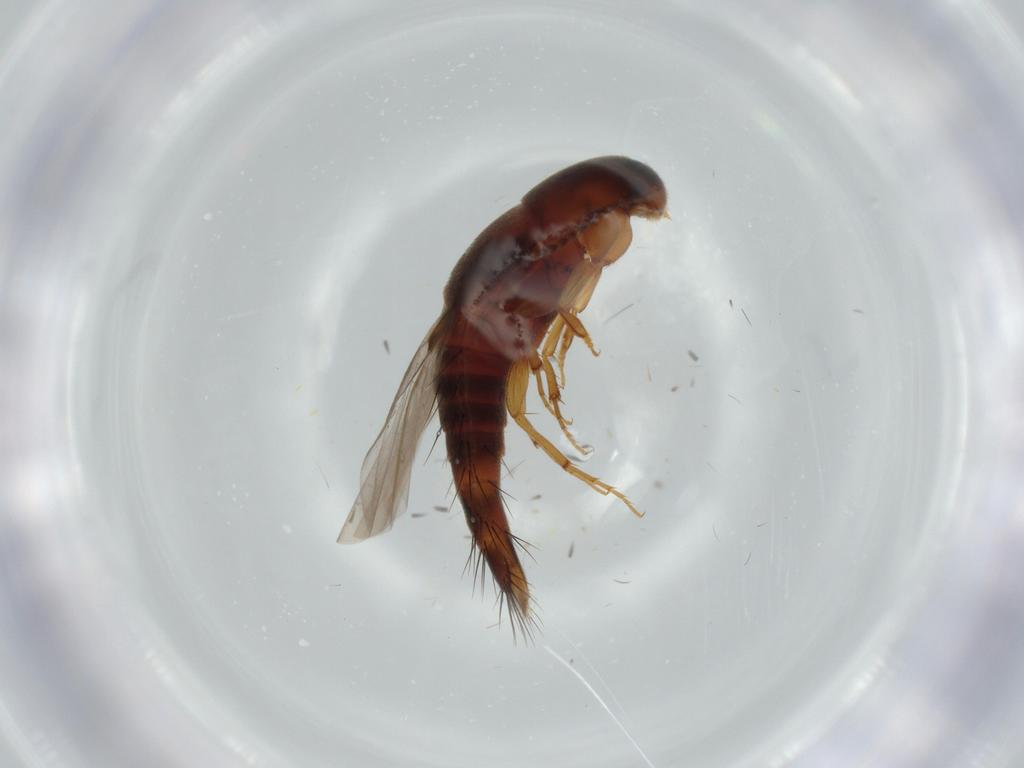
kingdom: Animalia
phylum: Arthropoda
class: Insecta
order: Coleoptera
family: Staphylinidae
